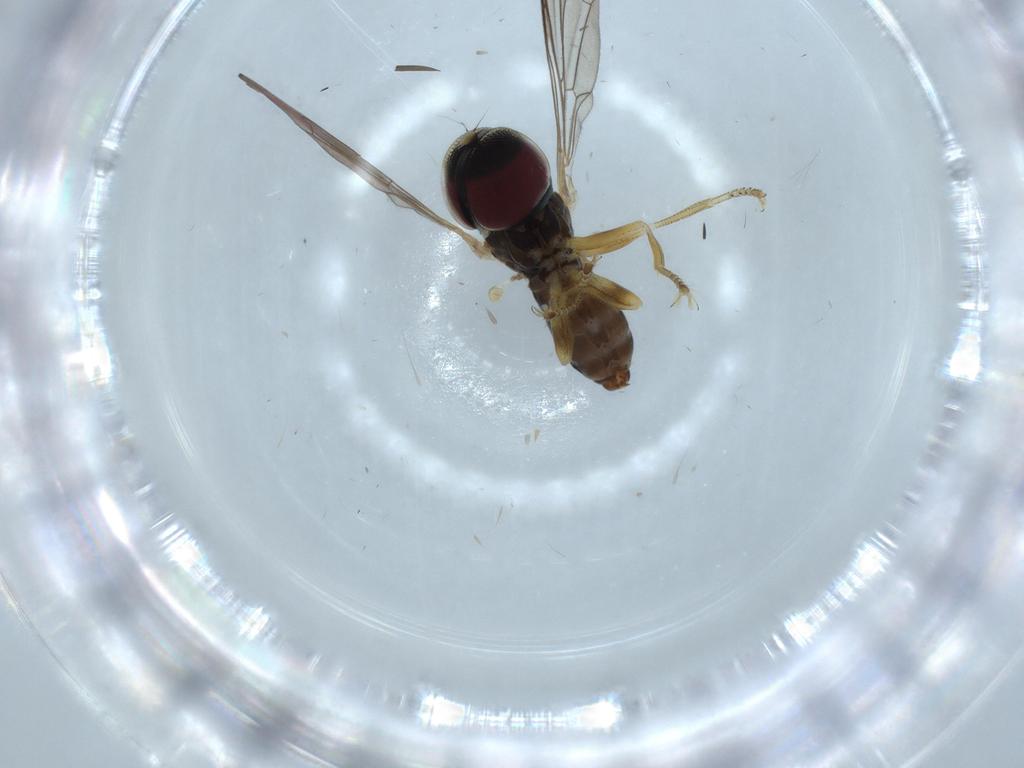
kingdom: Animalia
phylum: Arthropoda
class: Insecta
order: Diptera
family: Pipunculidae
